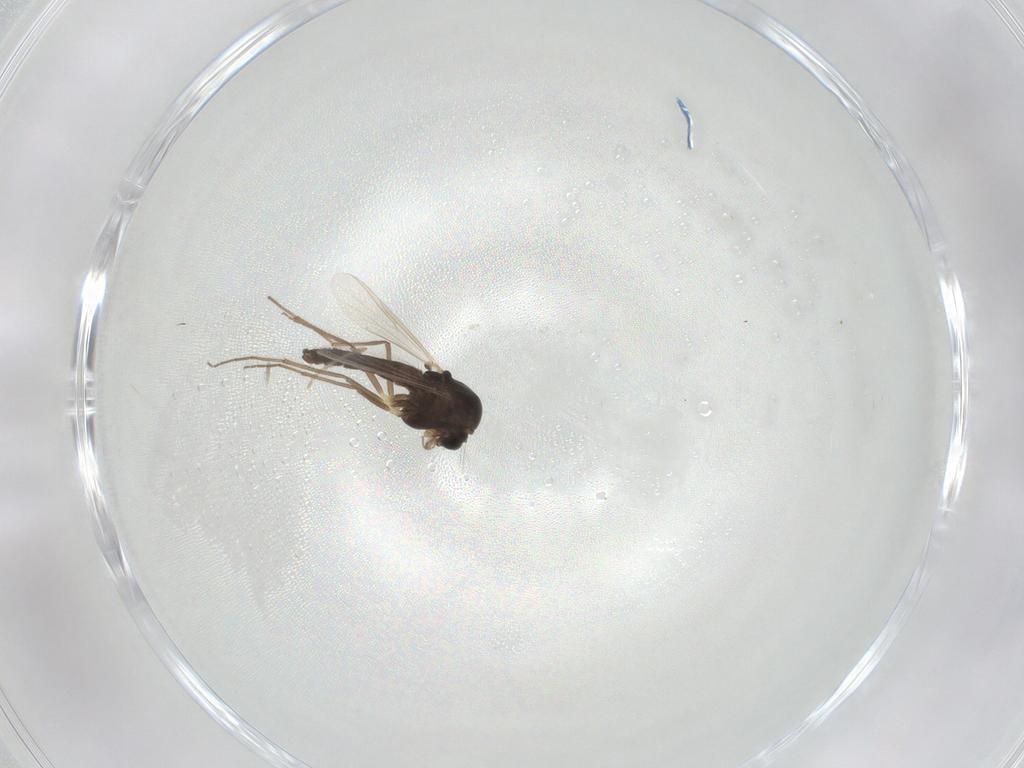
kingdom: Animalia
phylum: Arthropoda
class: Insecta
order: Diptera
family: Chironomidae
